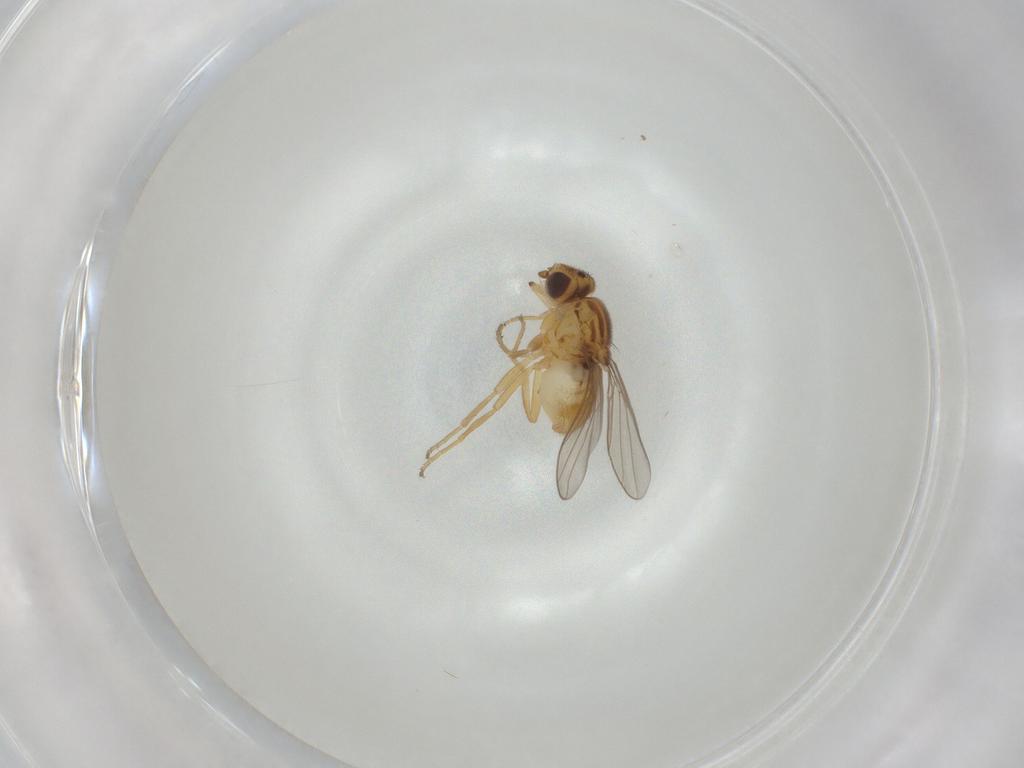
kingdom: Animalia
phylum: Arthropoda
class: Insecta
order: Diptera
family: Chloropidae
